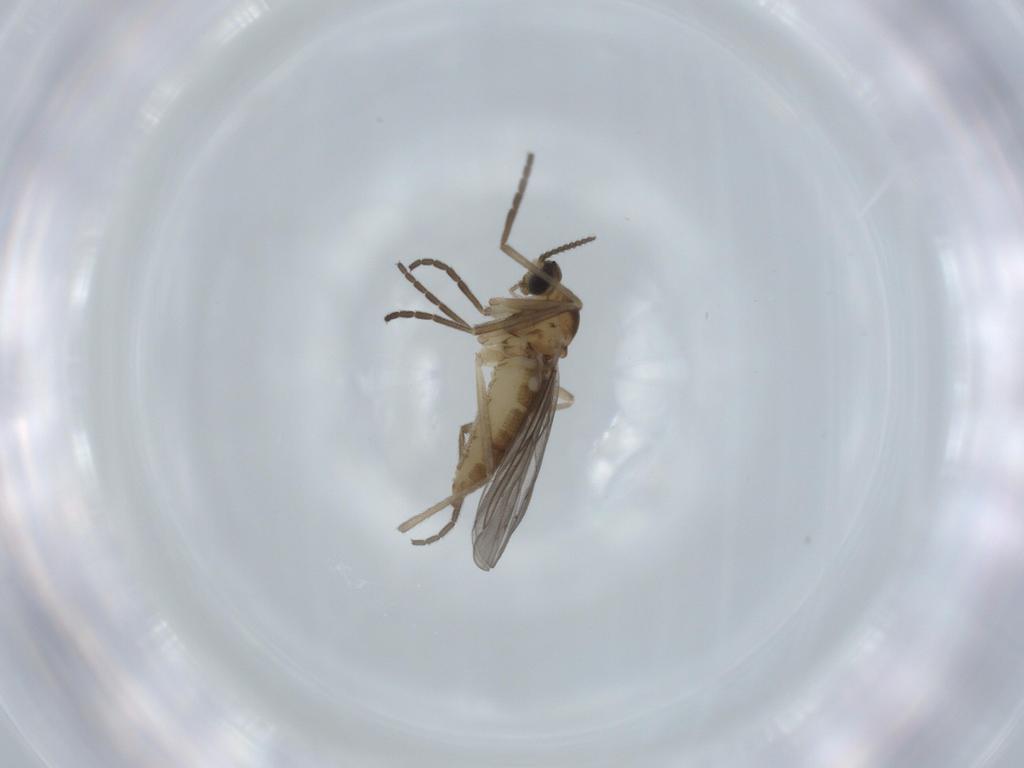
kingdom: Animalia
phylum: Arthropoda
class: Insecta
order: Diptera
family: Cecidomyiidae
